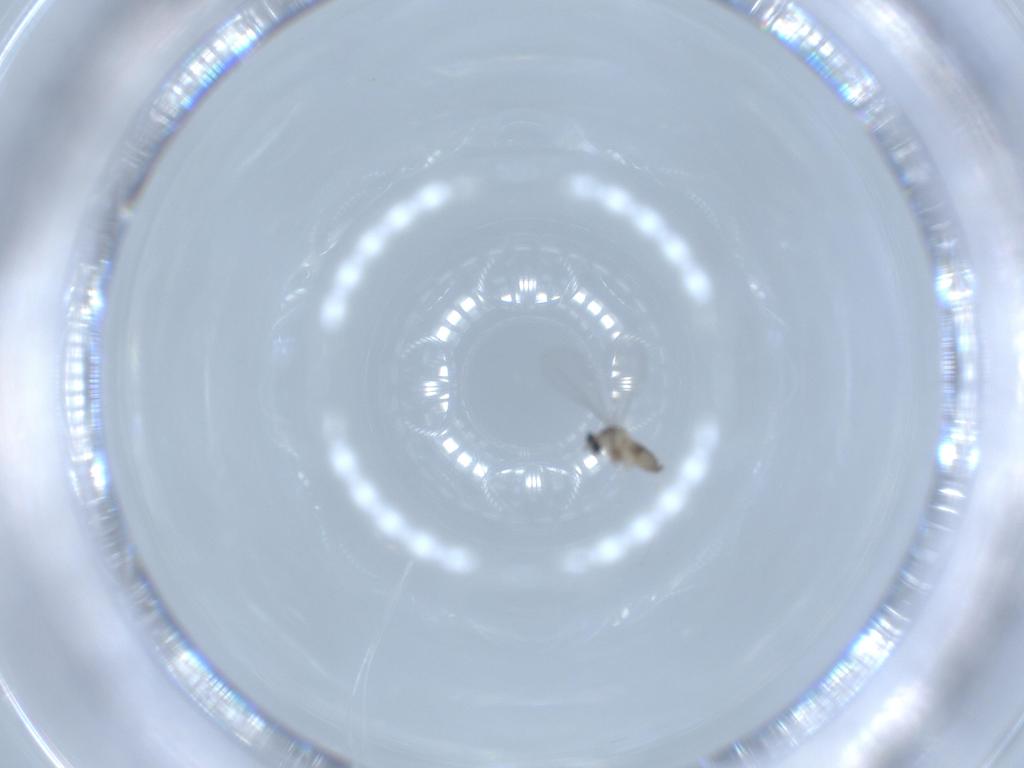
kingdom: Animalia
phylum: Arthropoda
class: Insecta
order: Diptera
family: Cecidomyiidae
